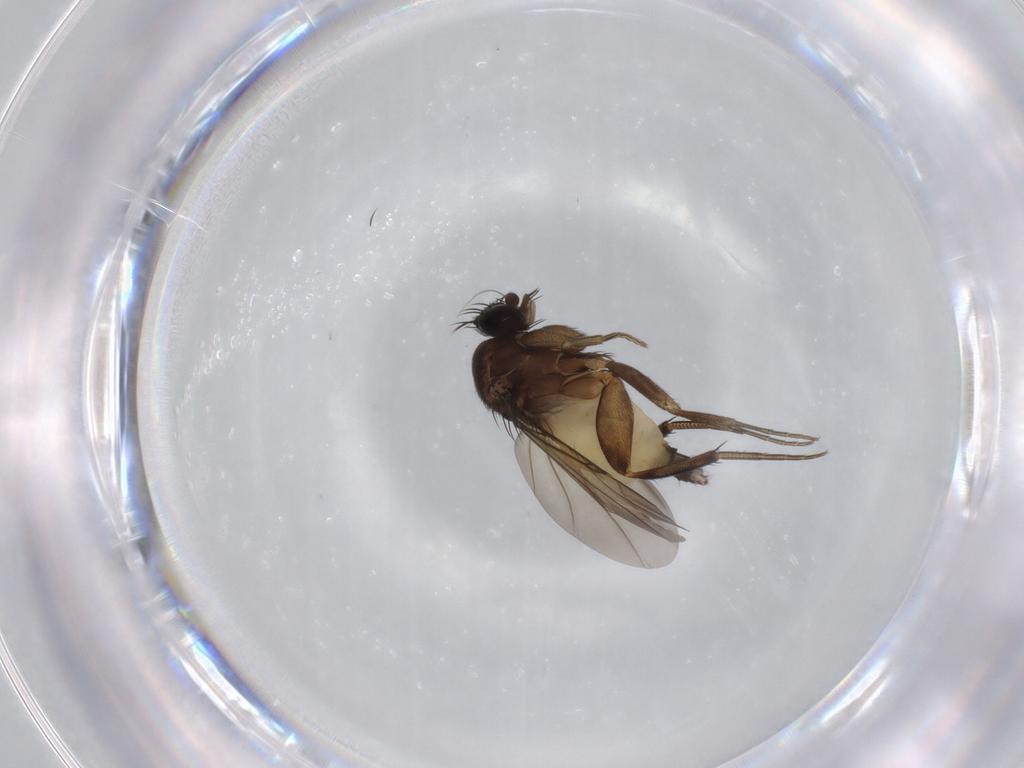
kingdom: Animalia
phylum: Arthropoda
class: Insecta
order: Diptera
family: Phoridae
